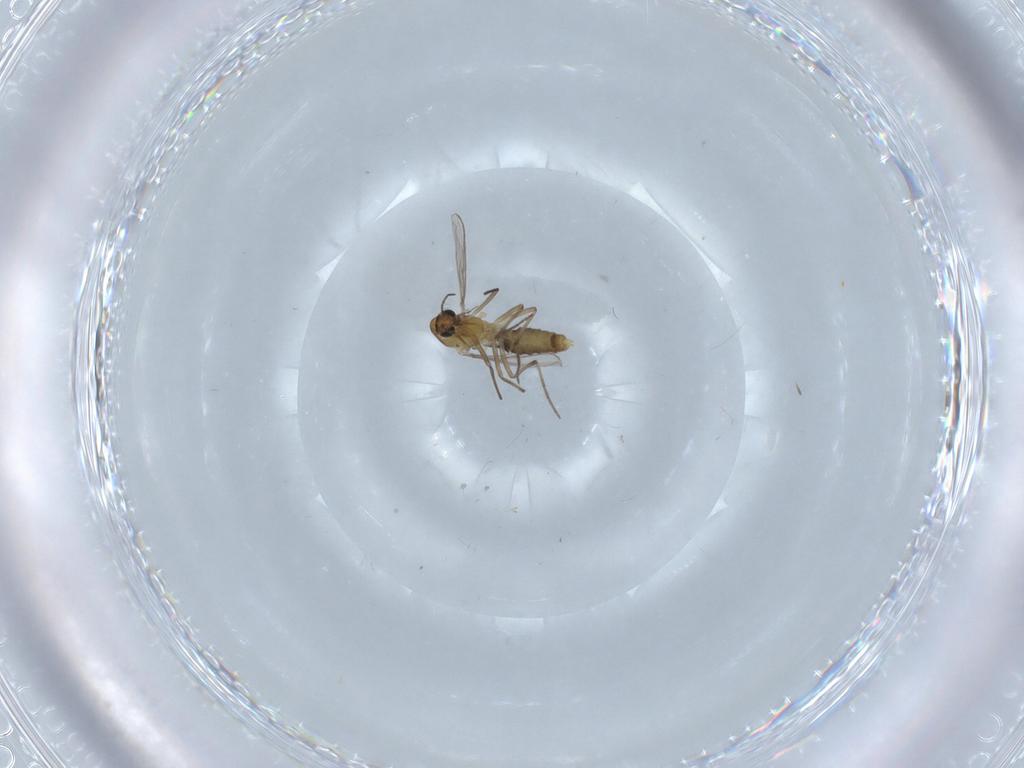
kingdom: Animalia
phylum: Arthropoda
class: Insecta
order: Diptera
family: Chironomidae
